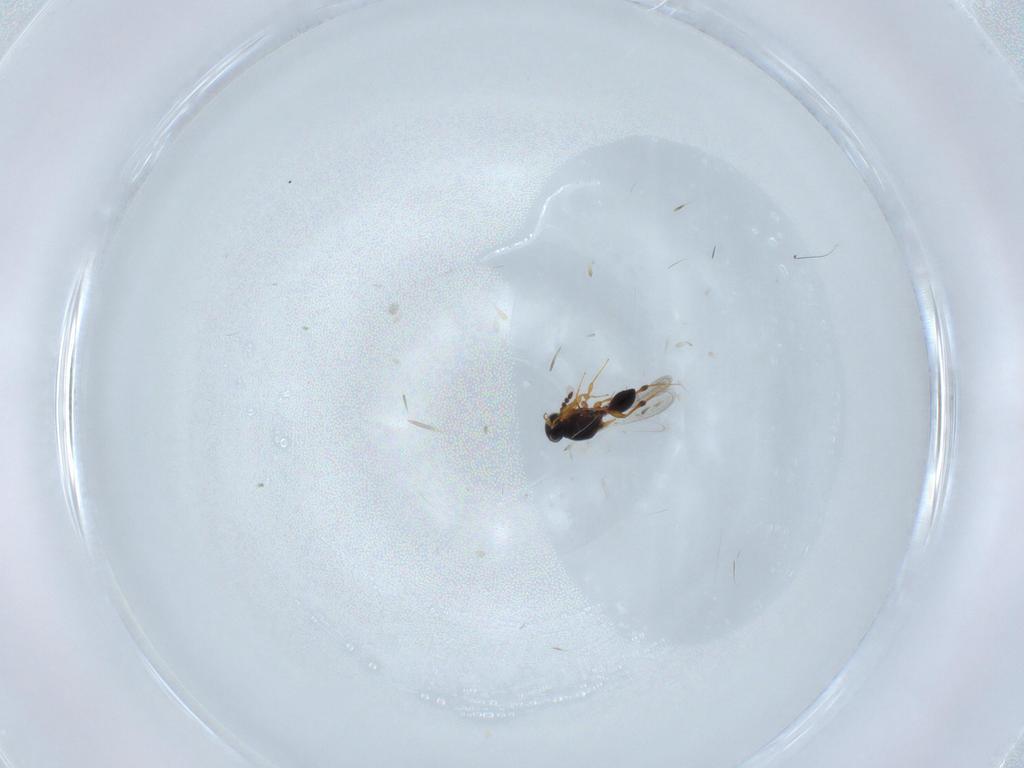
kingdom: Animalia
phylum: Arthropoda
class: Insecta
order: Hymenoptera
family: Platygastridae
